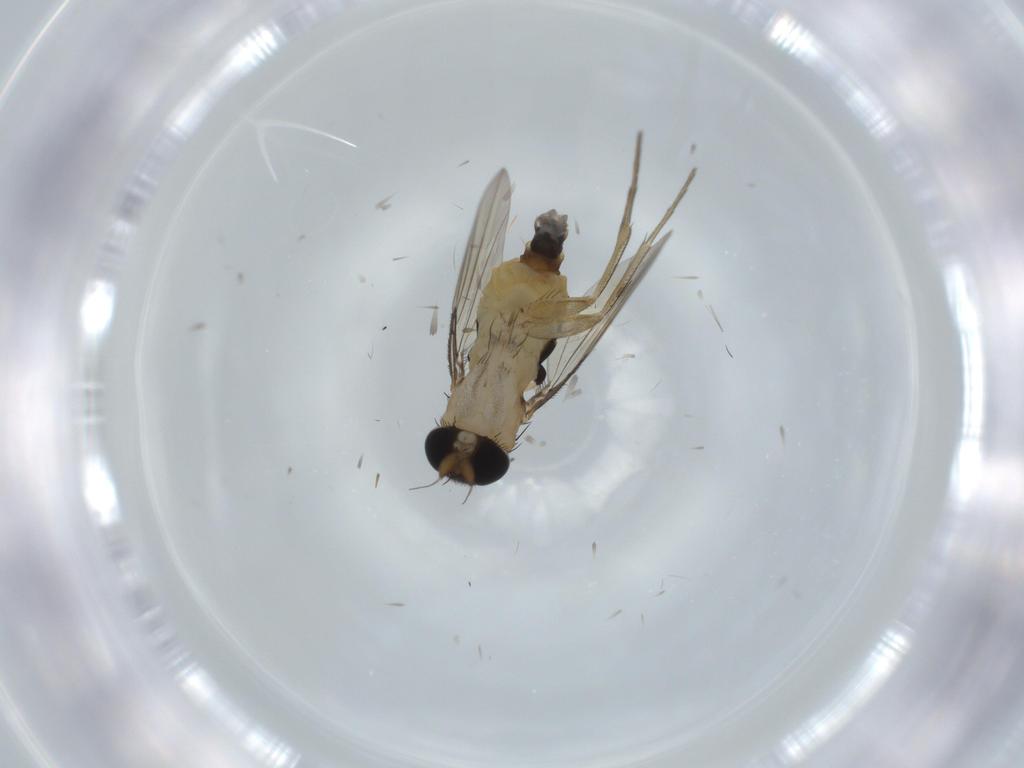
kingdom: Animalia
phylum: Arthropoda
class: Insecta
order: Diptera
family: Phoridae
